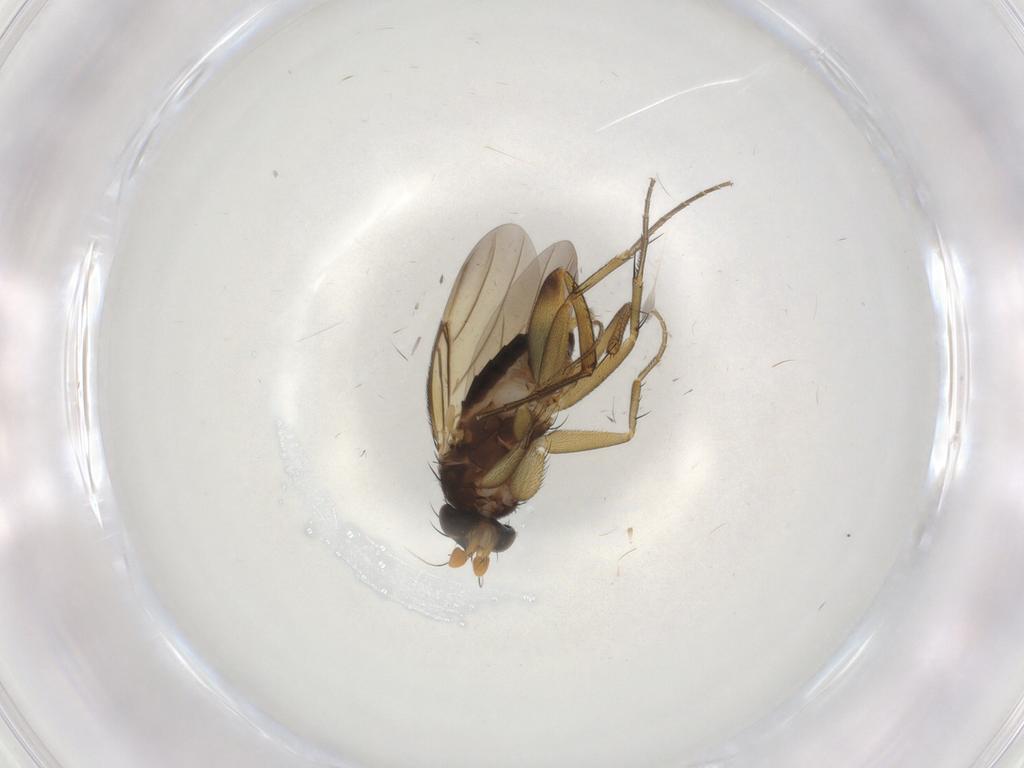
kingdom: Animalia
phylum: Arthropoda
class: Insecta
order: Diptera
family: Phoridae
